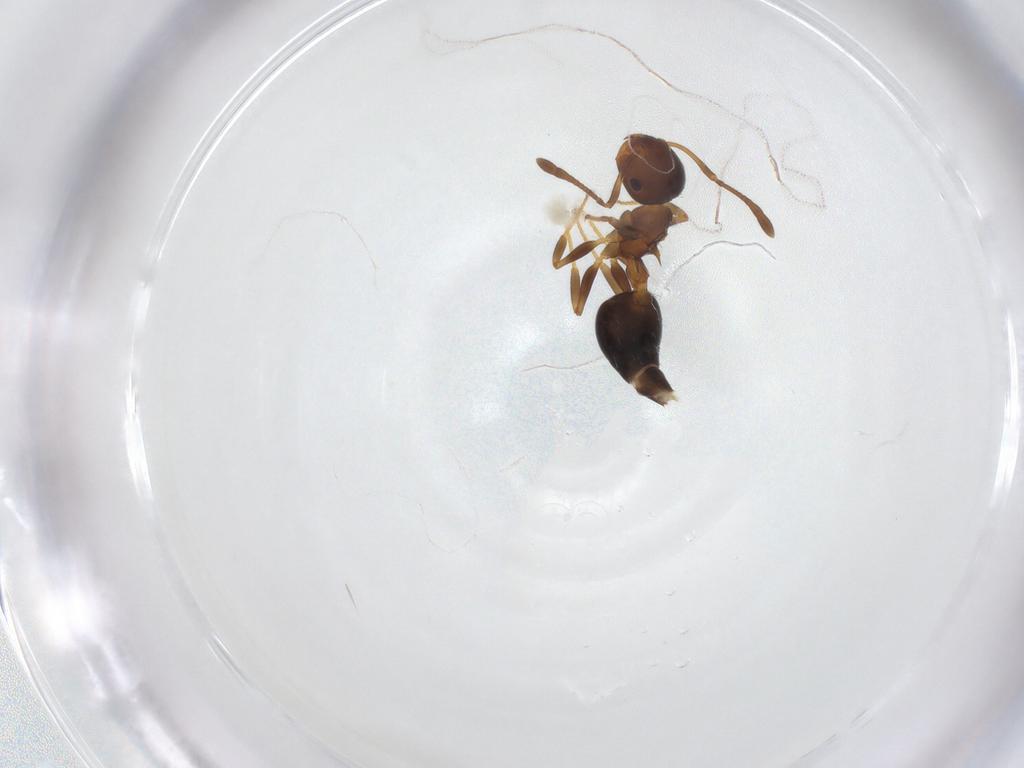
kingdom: Animalia
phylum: Arthropoda
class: Insecta
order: Hymenoptera
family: Formicidae
